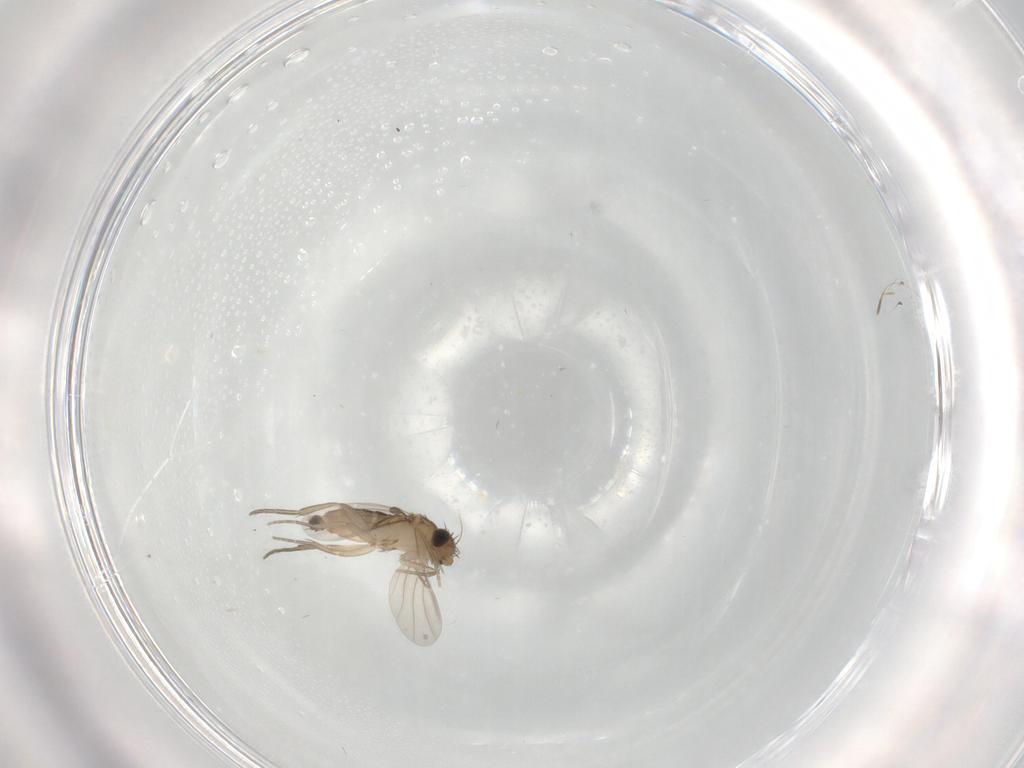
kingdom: Animalia
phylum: Arthropoda
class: Insecta
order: Diptera
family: Phoridae
